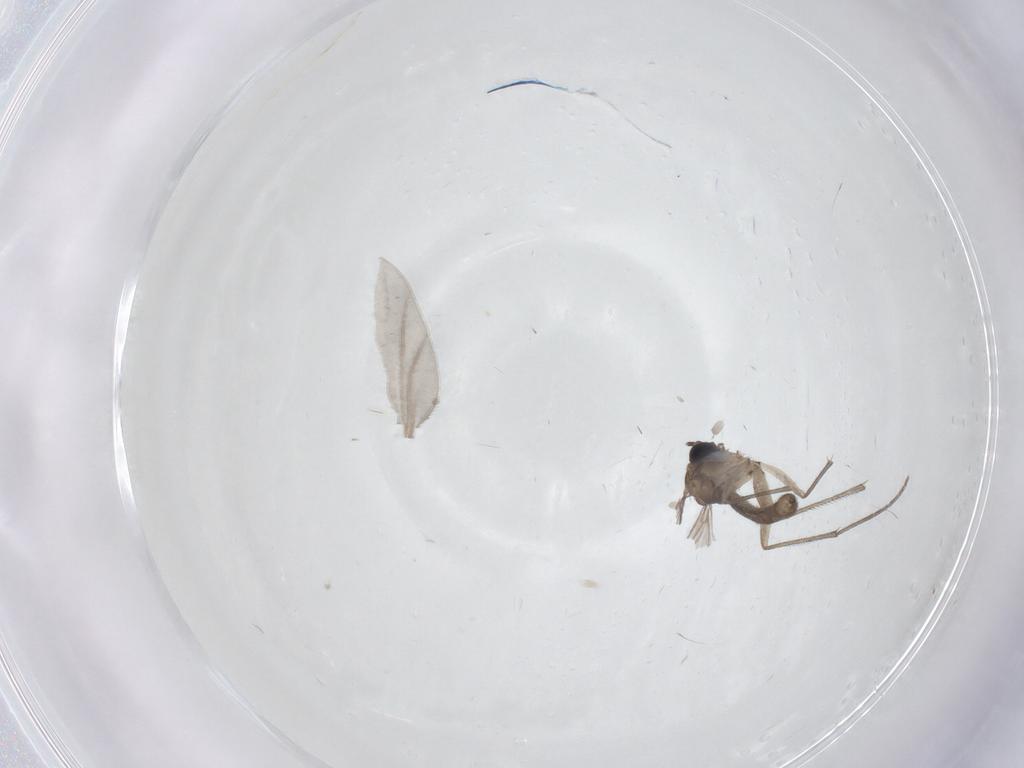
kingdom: Animalia
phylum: Arthropoda
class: Insecta
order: Diptera
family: Sciaridae
